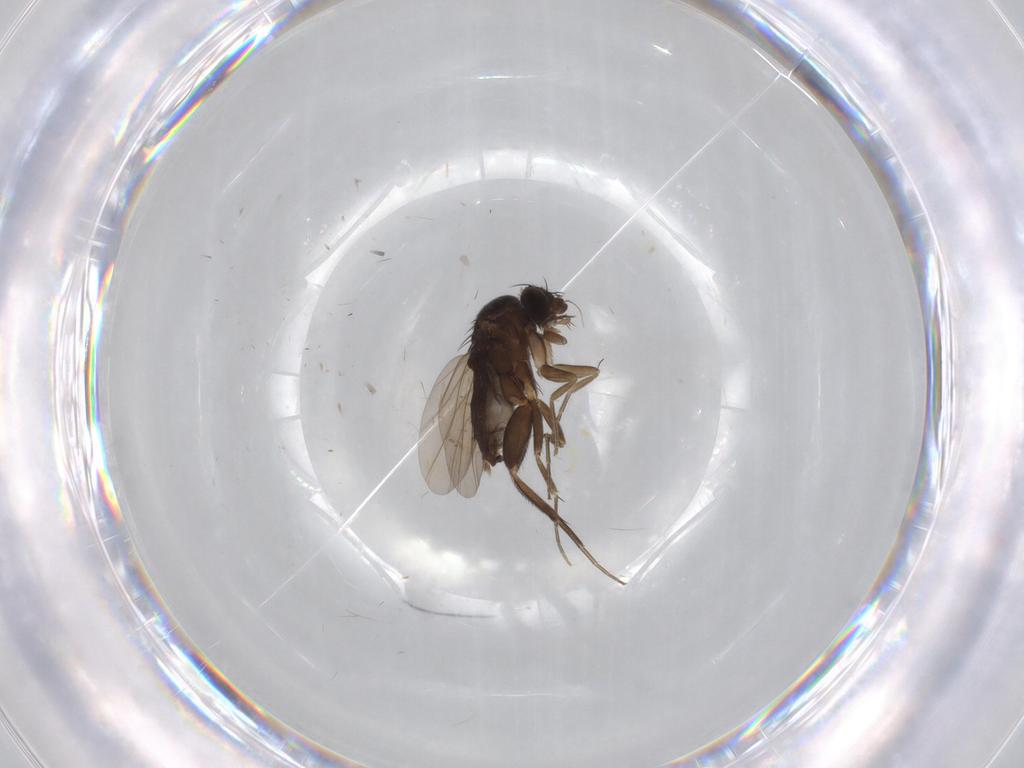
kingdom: Animalia
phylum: Arthropoda
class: Insecta
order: Diptera
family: Phoridae
